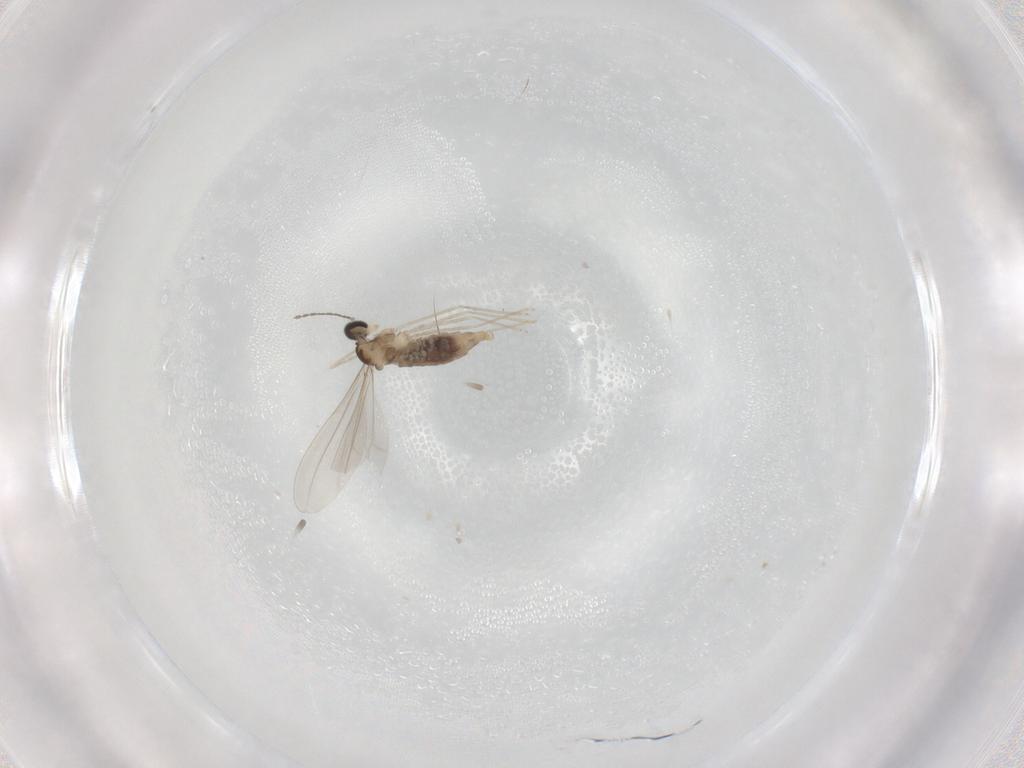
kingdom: Animalia
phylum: Arthropoda
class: Insecta
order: Diptera
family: Cecidomyiidae
